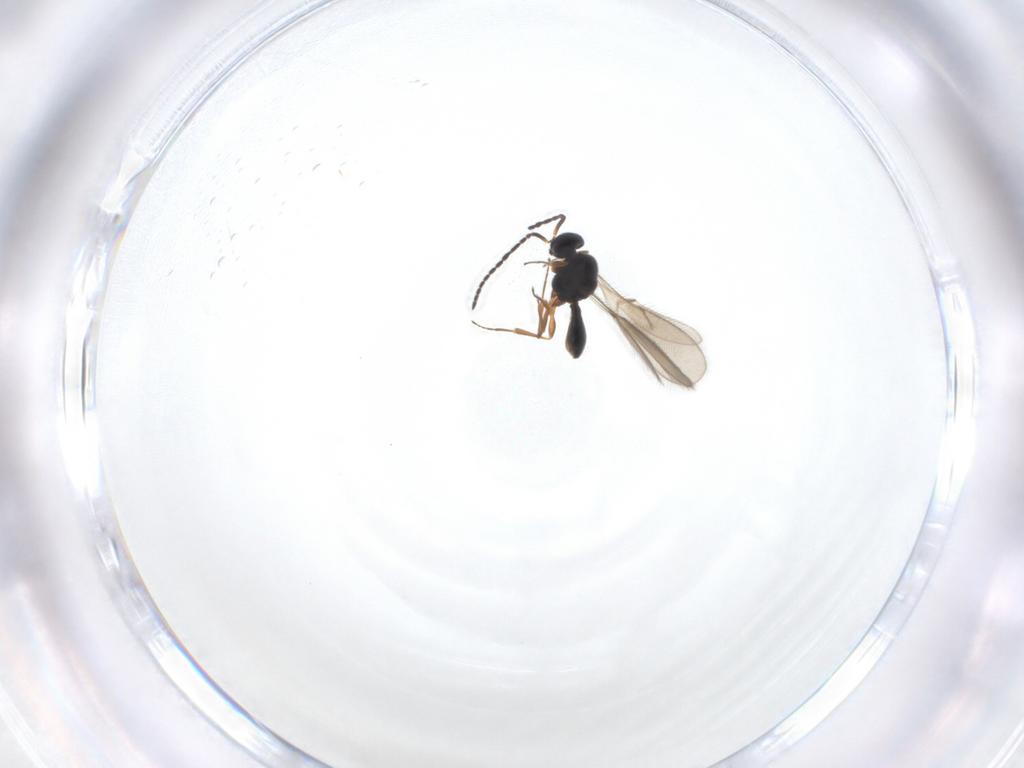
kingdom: Animalia
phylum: Arthropoda
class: Insecta
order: Hymenoptera
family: Scelionidae
